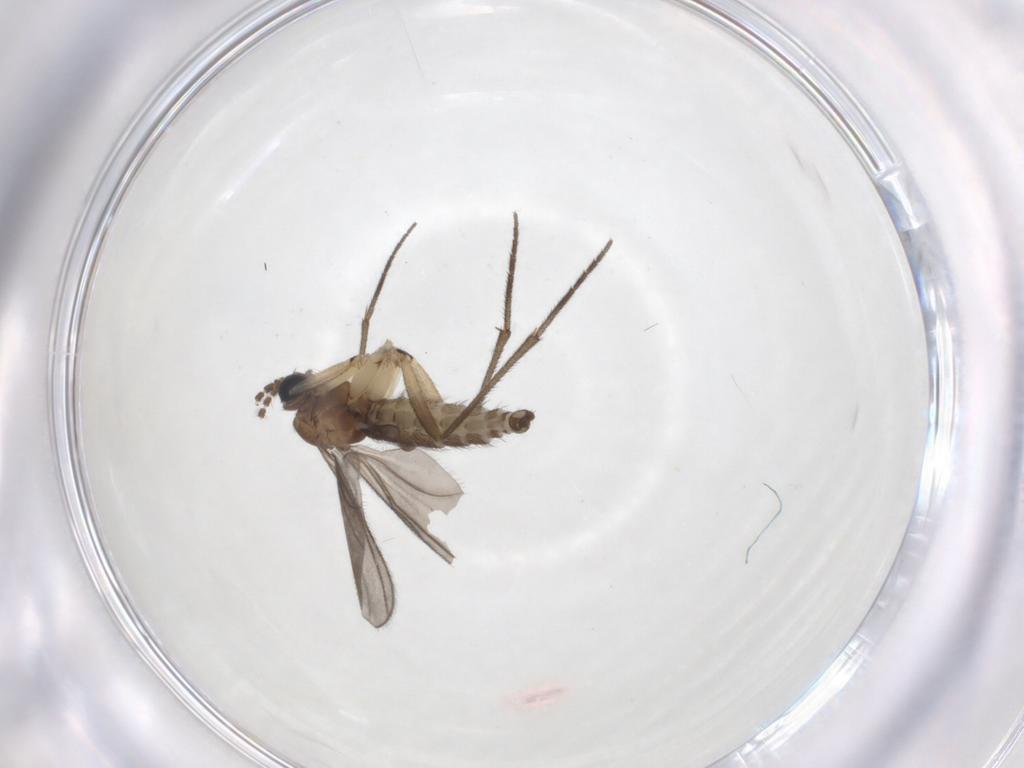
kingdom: Animalia
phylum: Arthropoda
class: Insecta
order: Diptera
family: Sciaridae
